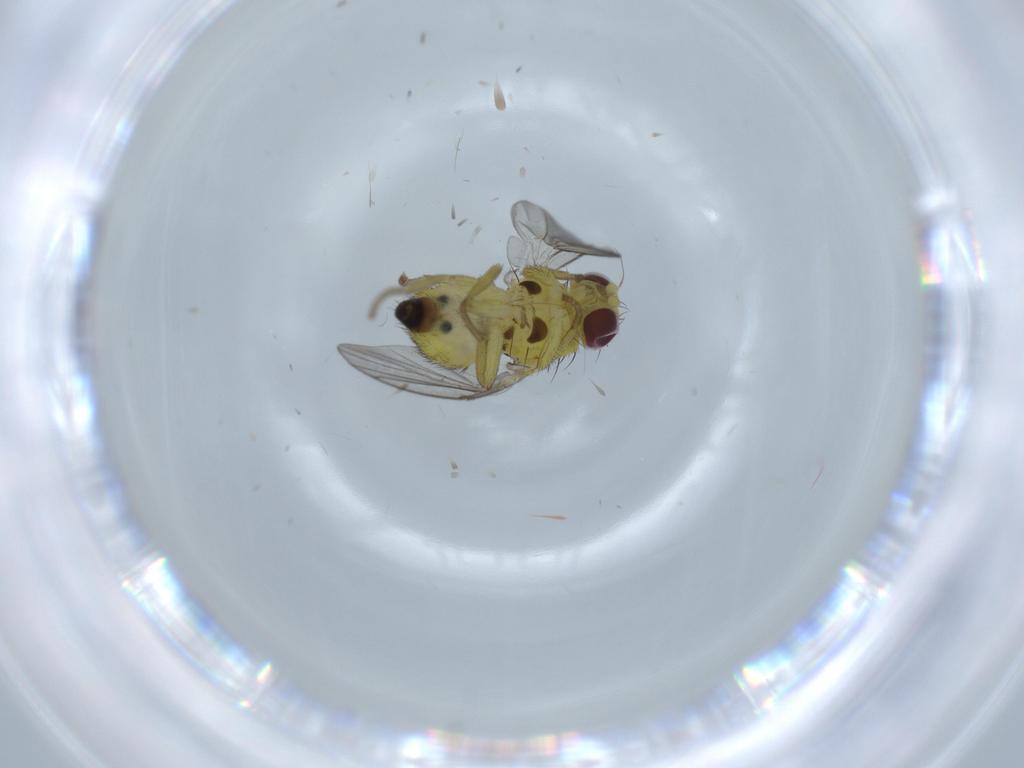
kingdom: Animalia
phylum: Arthropoda
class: Insecta
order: Diptera
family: Agromyzidae
